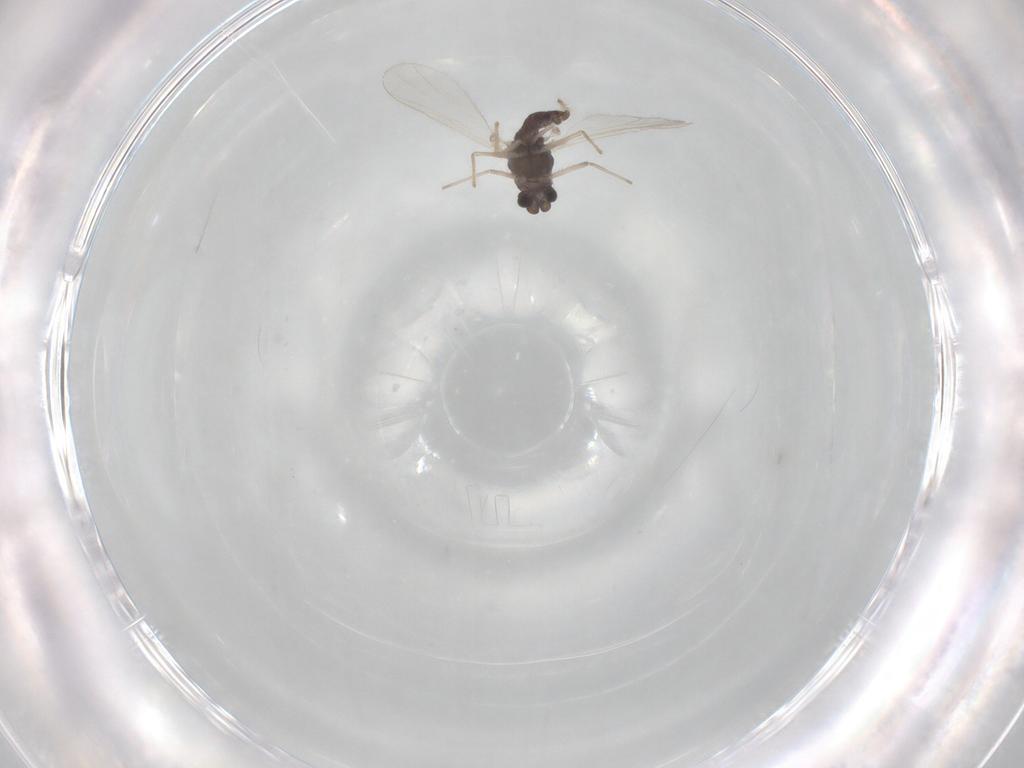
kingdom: Animalia
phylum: Arthropoda
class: Insecta
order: Diptera
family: Chironomidae
